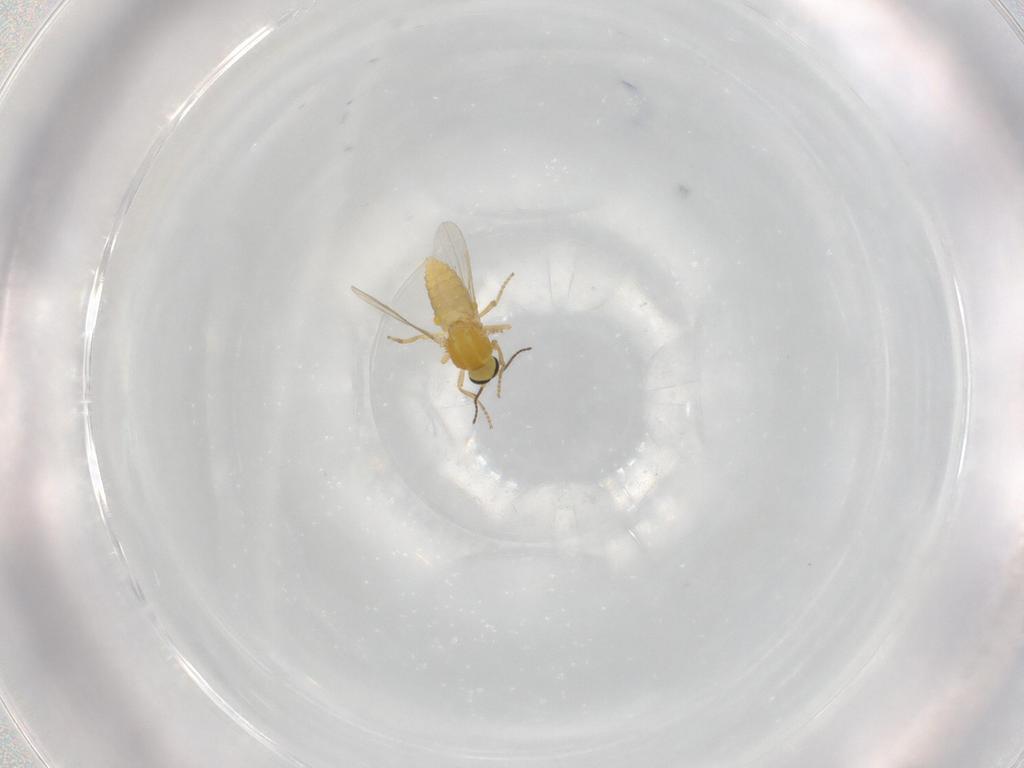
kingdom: Animalia
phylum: Arthropoda
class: Insecta
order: Diptera
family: Ceratopogonidae
